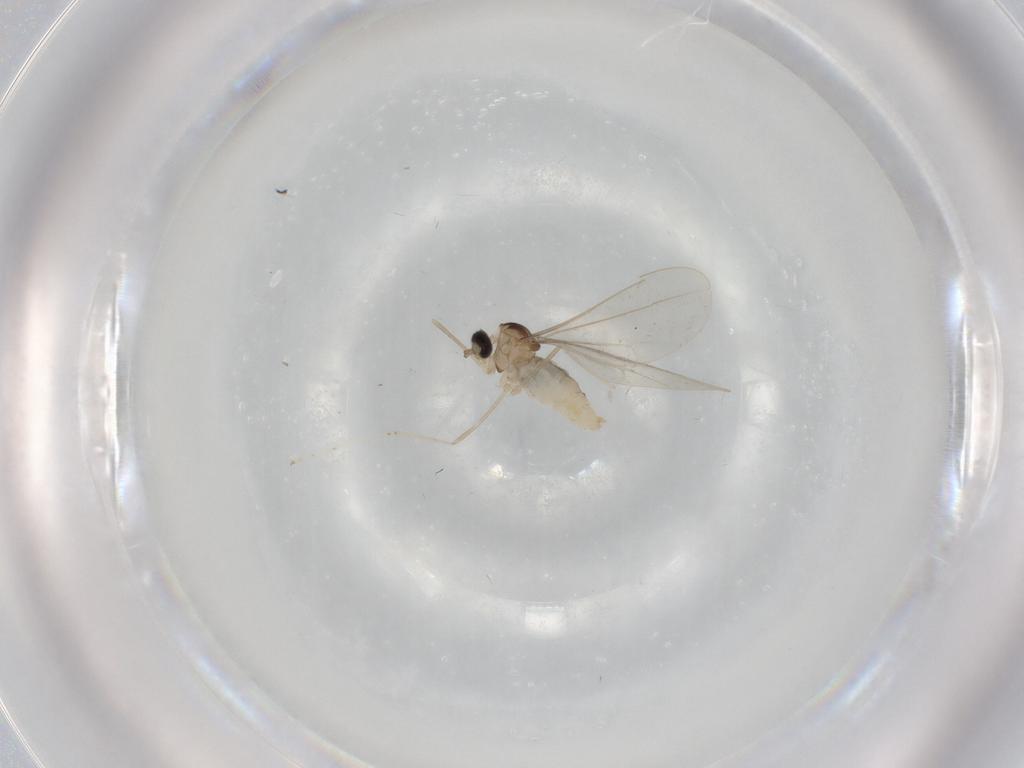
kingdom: Animalia
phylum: Arthropoda
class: Insecta
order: Diptera
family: Cecidomyiidae
